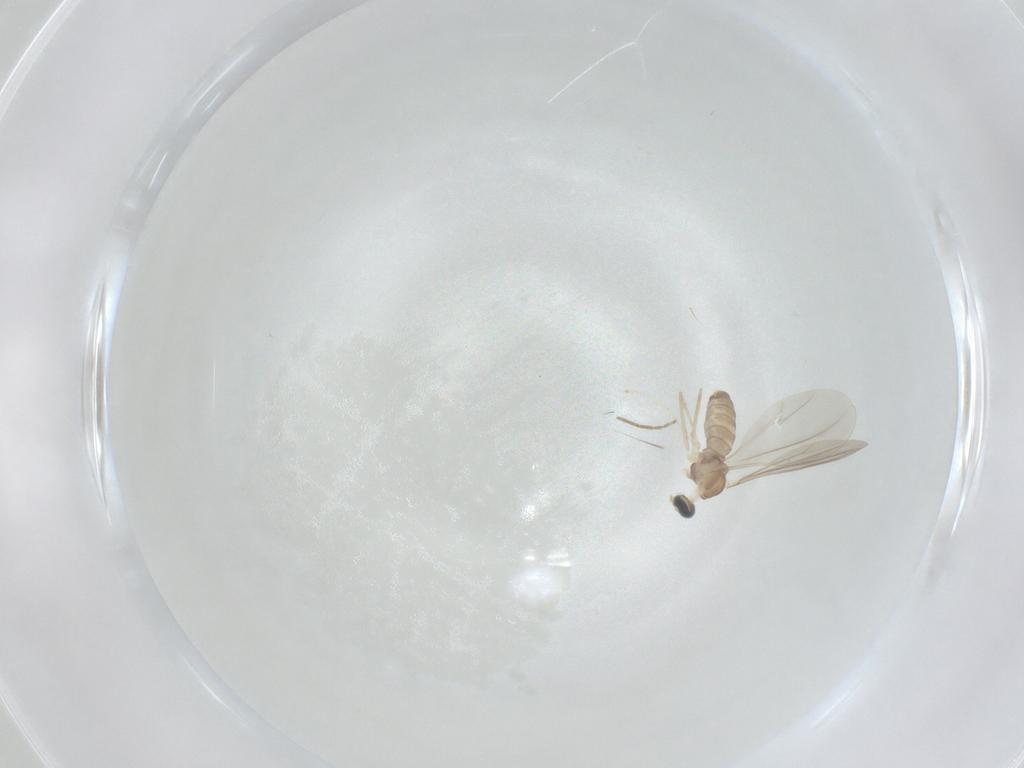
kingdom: Animalia
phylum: Arthropoda
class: Insecta
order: Diptera
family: Cecidomyiidae
